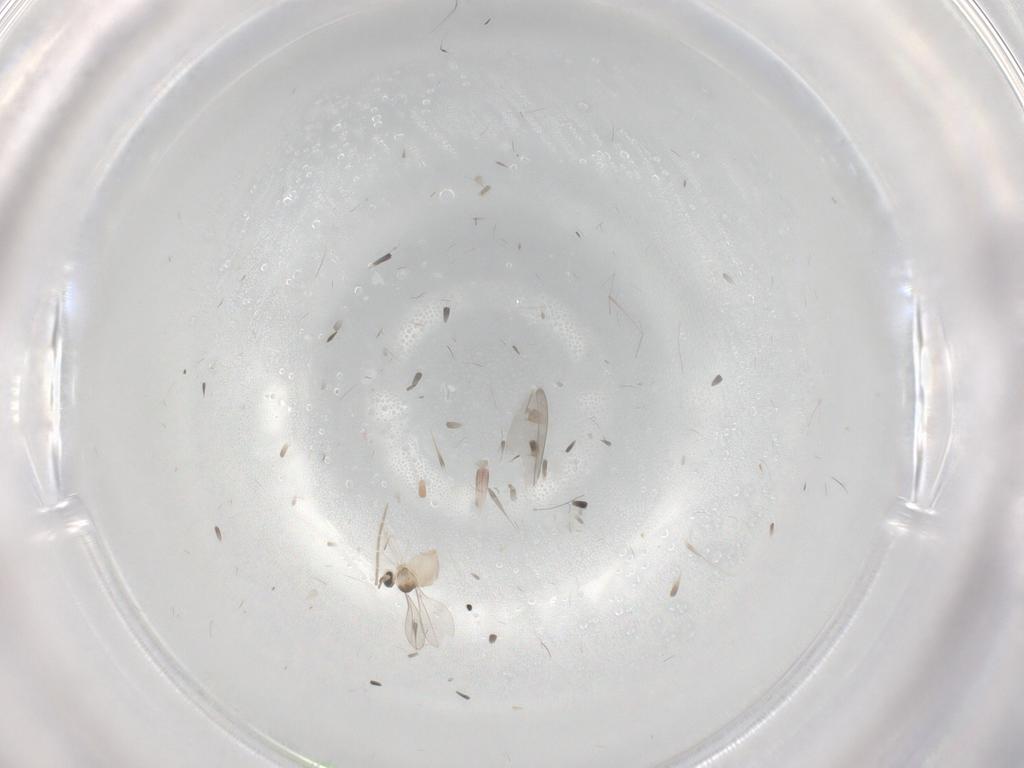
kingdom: Animalia
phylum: Arthropoda
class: Insecta
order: Diptera
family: Cecidomyiidae
